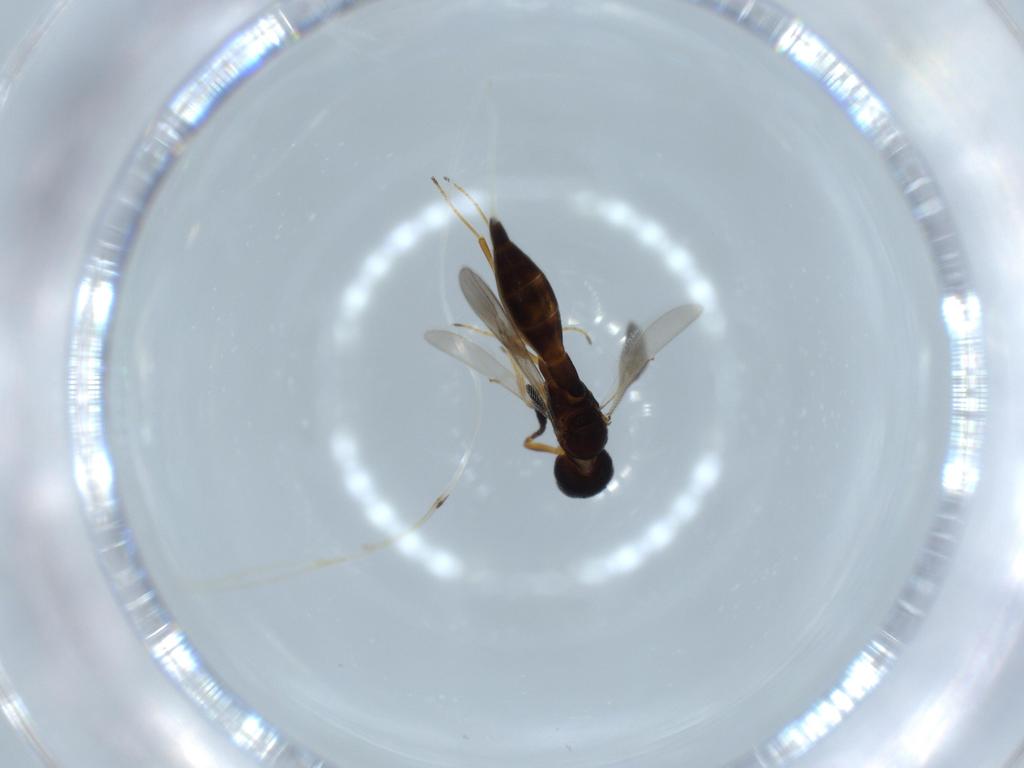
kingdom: Animalia
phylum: Arthropoda
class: Insecta
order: Hymenoptera
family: Scelionidae
